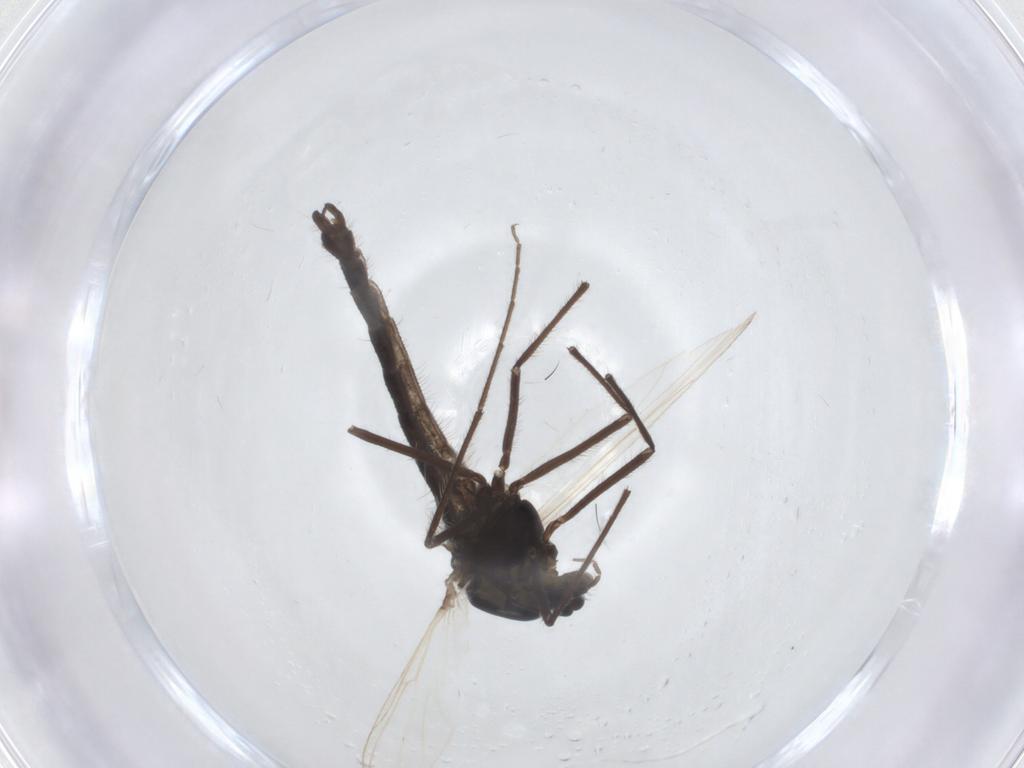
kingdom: Animalia
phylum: Arthropoda
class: Insecta
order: Diptera
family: Chironomidae
